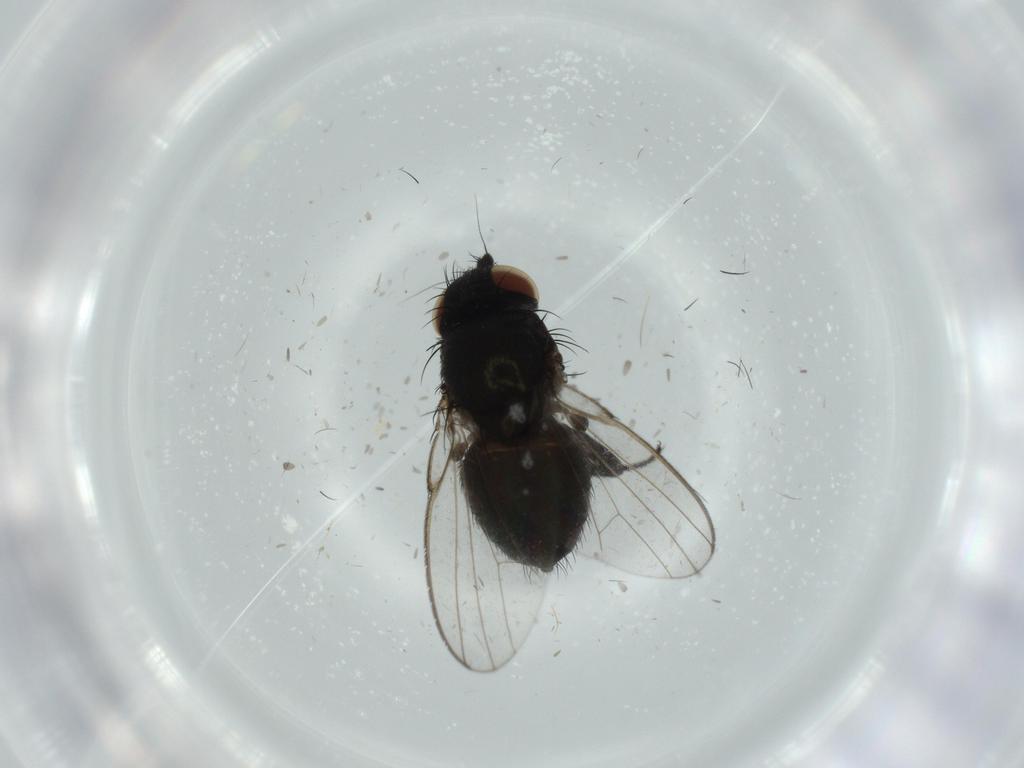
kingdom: Animalia
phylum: Arthropoda
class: Insecta
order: Diptera
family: Milichiidae
